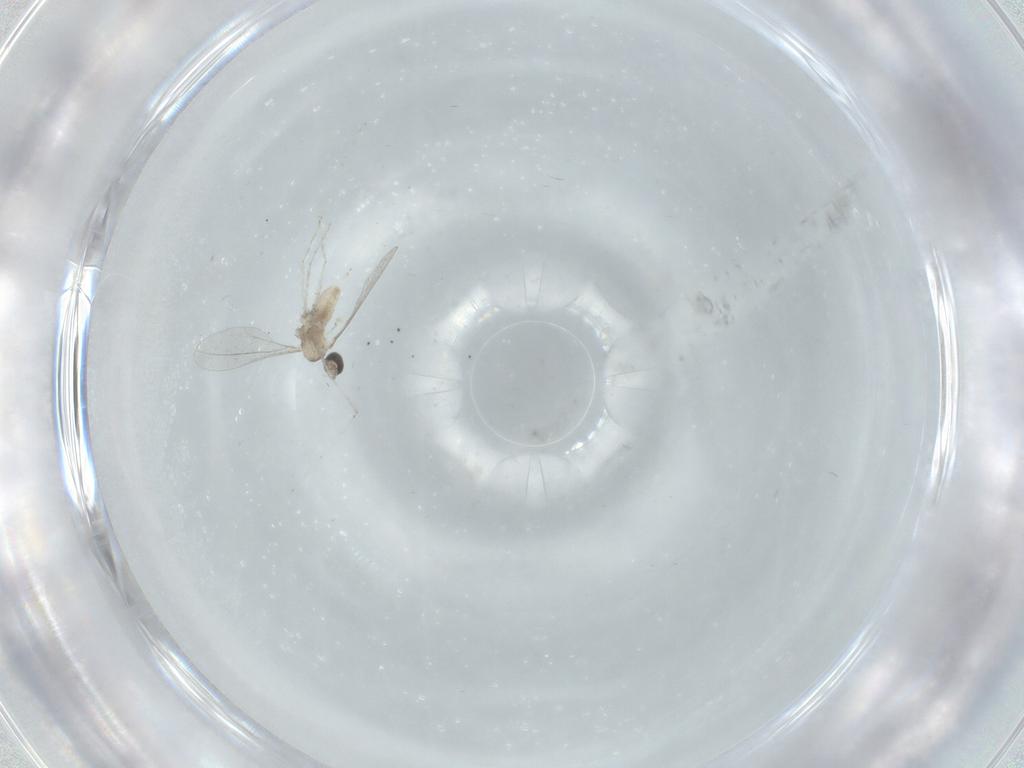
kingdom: Animalia
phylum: Arthropoda
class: Insecta
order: Diptera
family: Cecidomyiidae
